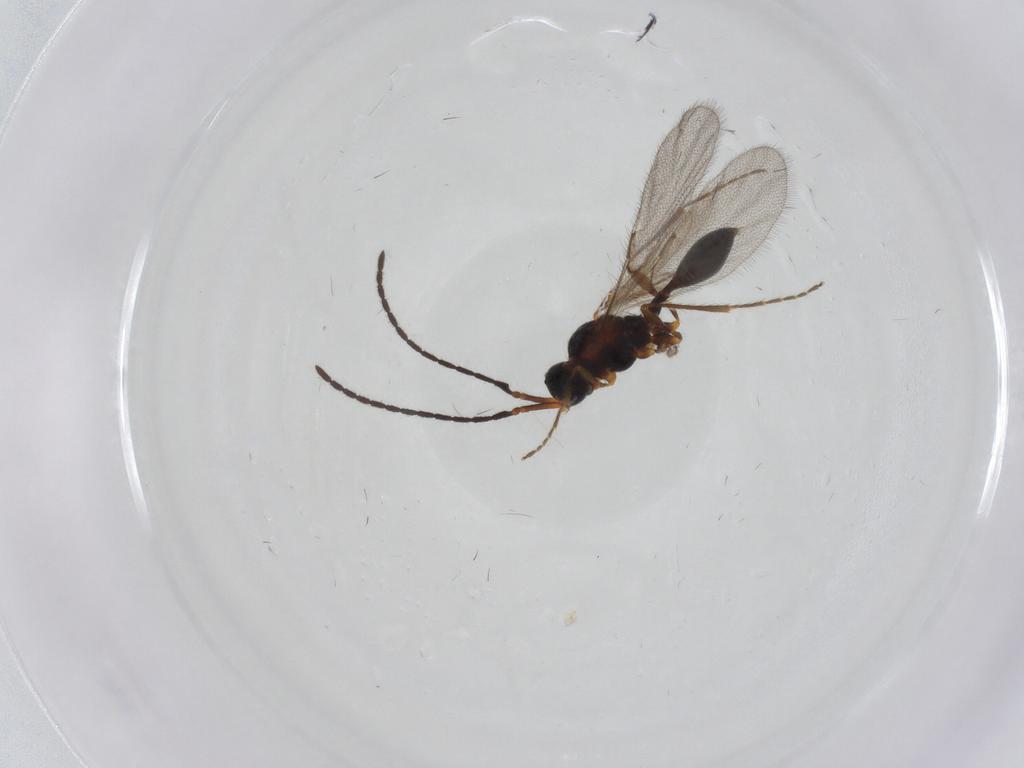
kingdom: Animalia
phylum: Arthropoda
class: Insecta
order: Hymenoptera
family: Diapriidae
